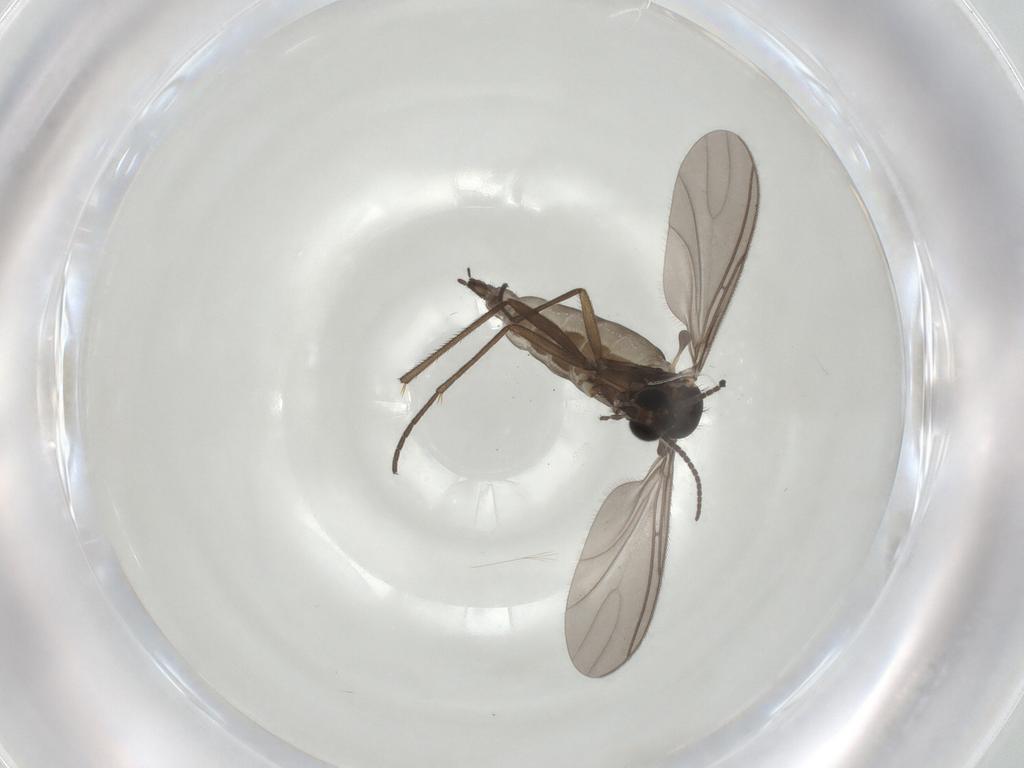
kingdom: Animalia
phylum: Arthropoda
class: Insecta
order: Diptera
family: Sciaridae
